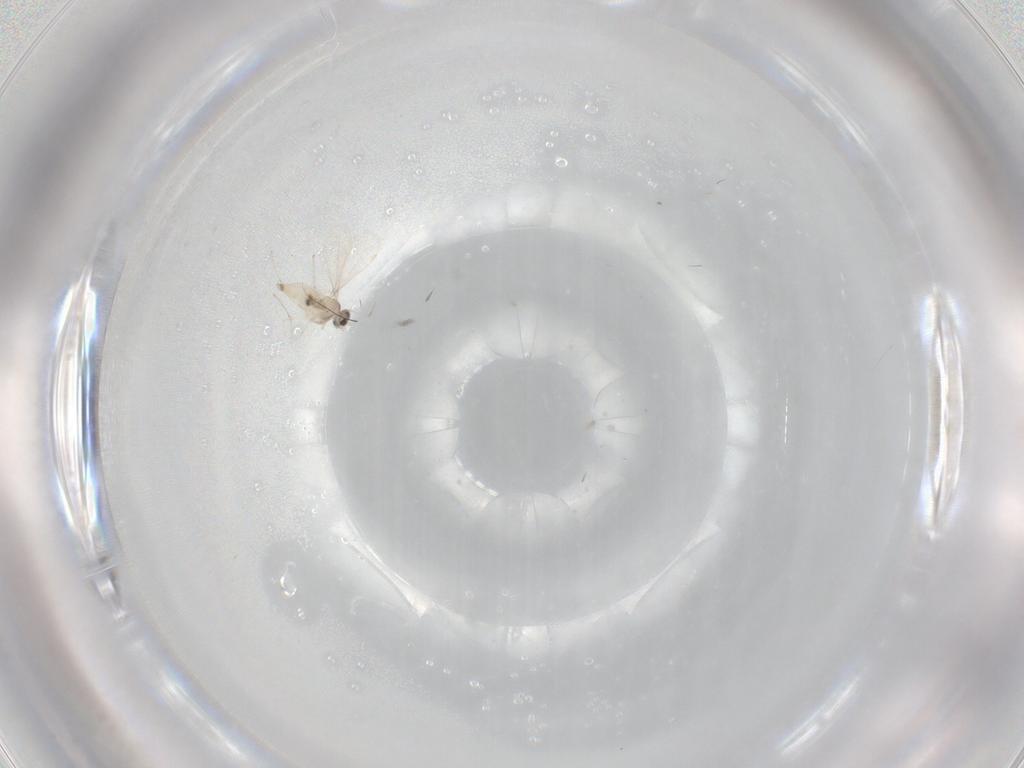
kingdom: Animalia
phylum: Arthropoda
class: Insecta
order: Diptera
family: Cecidomyiidae
